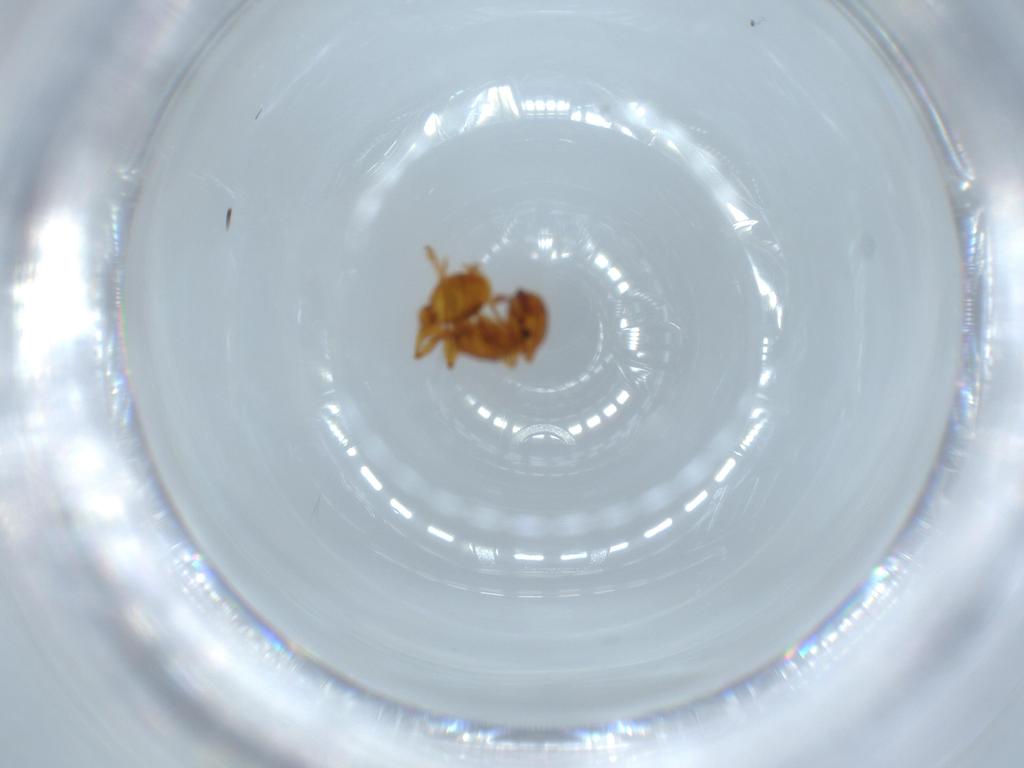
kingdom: Animalia
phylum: Arthropoda
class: Insecta
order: Hymenoptera
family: Formicidae
